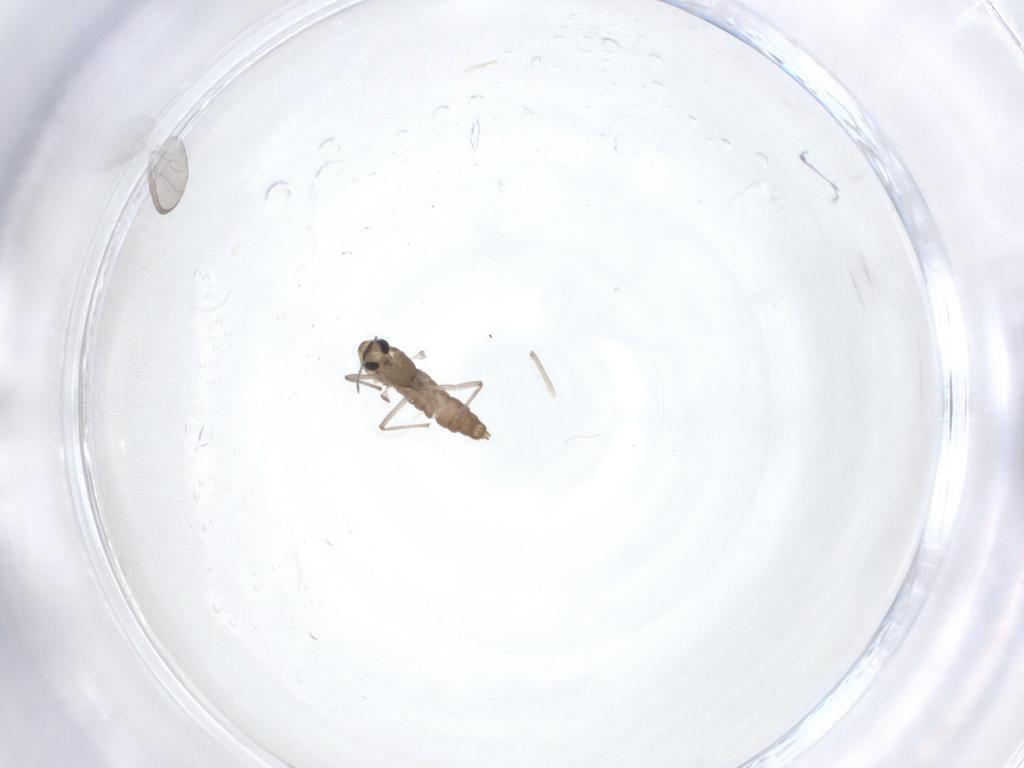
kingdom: Animalia
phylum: Arthropoda
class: Insecta
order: Diptera
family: Chironomidae
